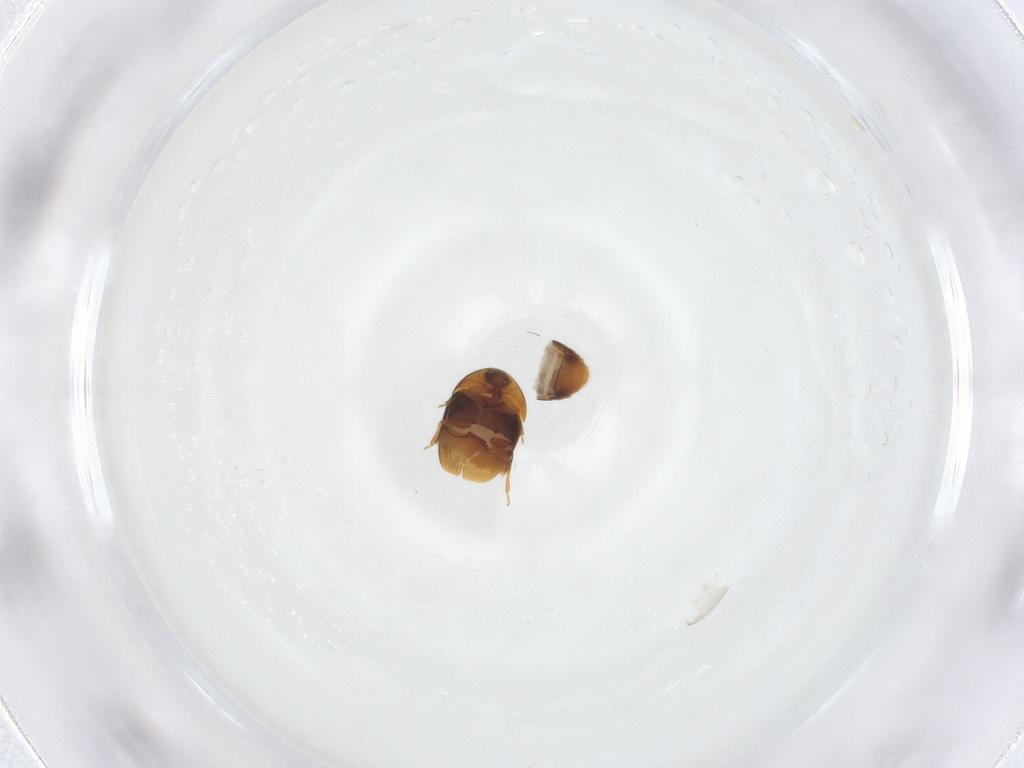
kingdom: Animalia
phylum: Arthropoda
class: Insecta
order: Coleoptera
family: Corylophidae
